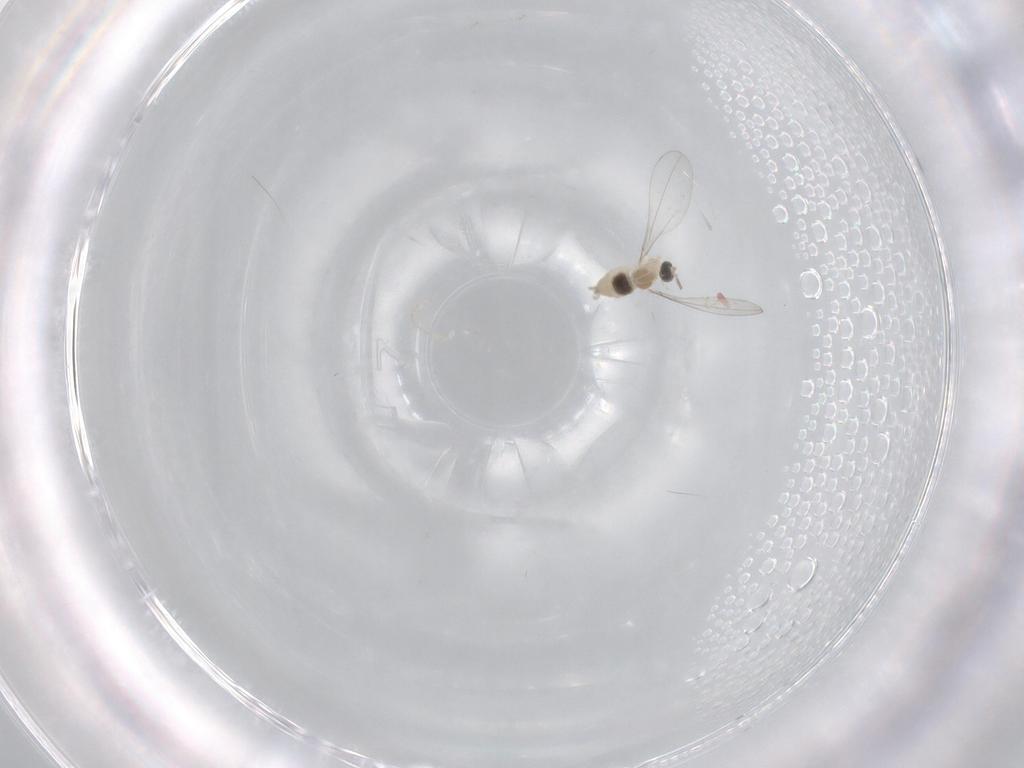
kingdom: Animalia
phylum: Arthropoda
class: Insecta
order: Diptera
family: Cecidomyiidae
